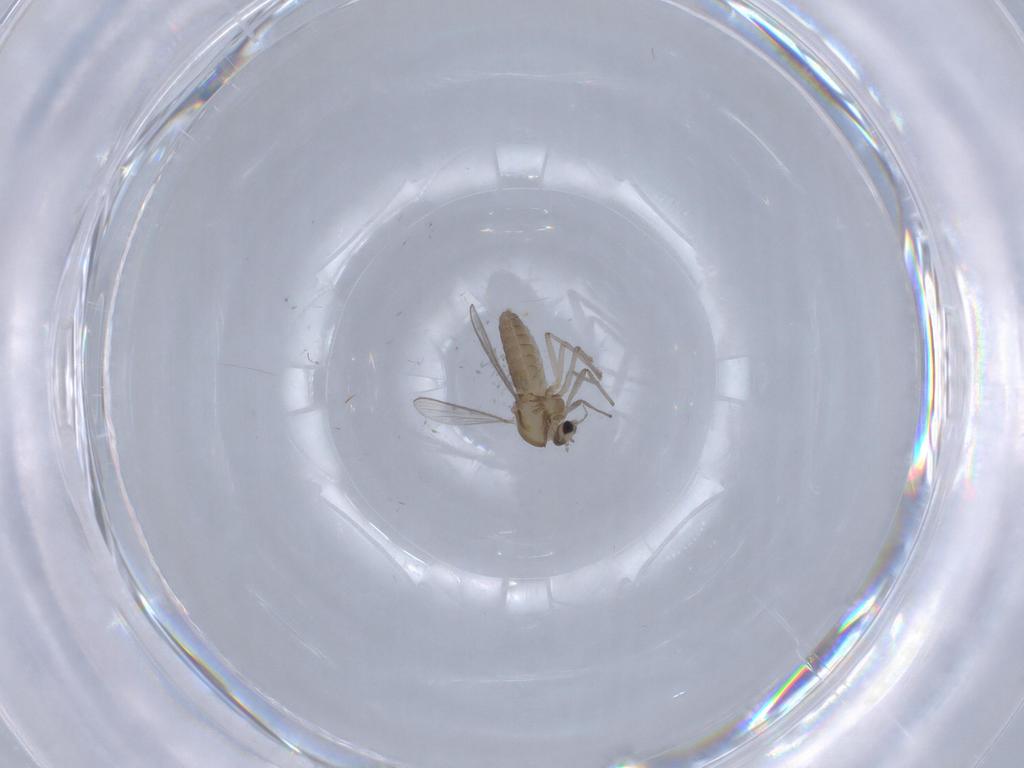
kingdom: Animalia
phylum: Arthropoda
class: Insecta
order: Diptera
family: Chironomidae
